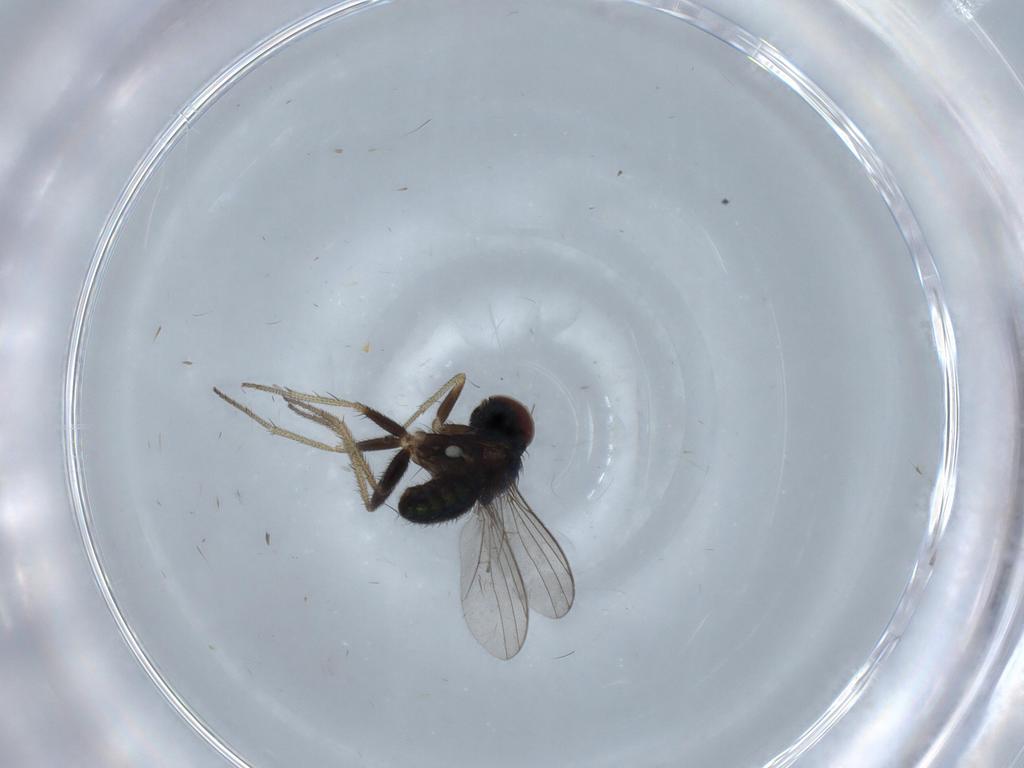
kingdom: Animalia
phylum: Arthropoda
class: Insecta
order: Diptera
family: Dolichopodidae
